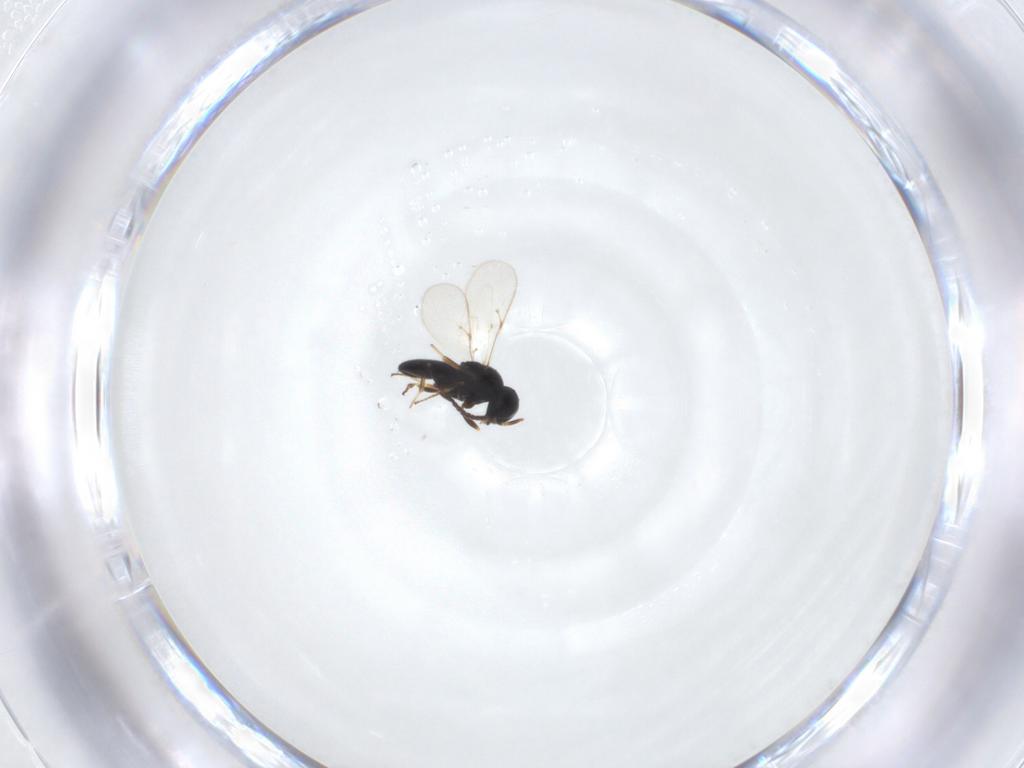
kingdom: Animalia
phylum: Arthropoda
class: Insecta
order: Hymenoptera
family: Scelionidae
